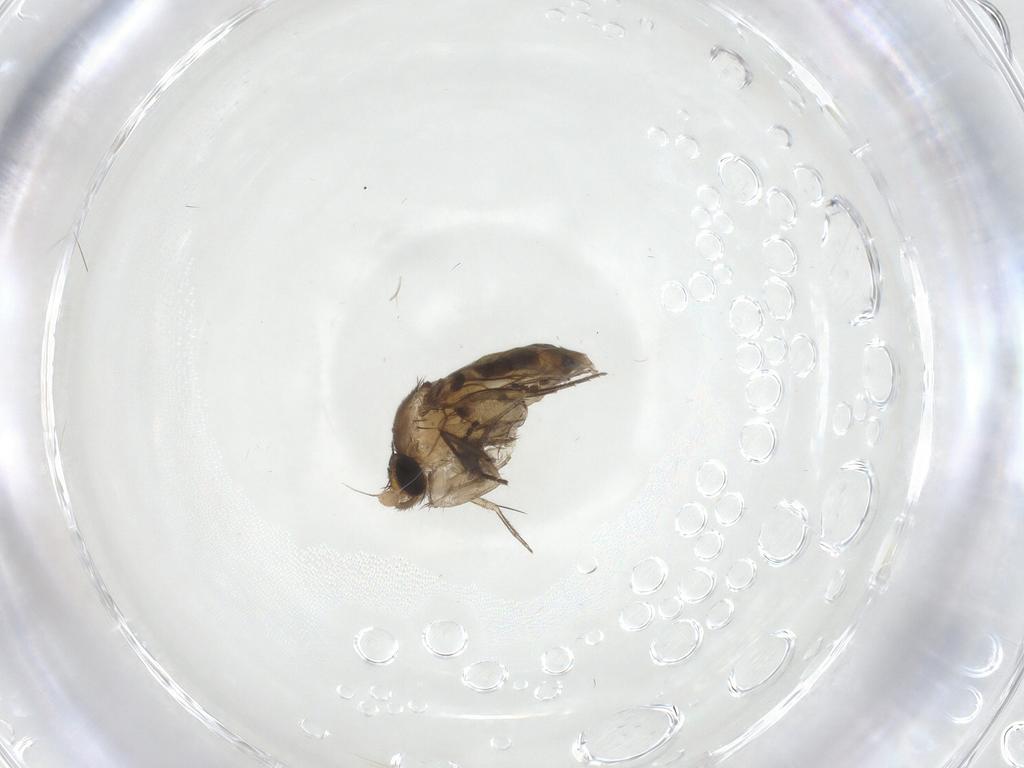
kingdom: Animalia
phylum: Arthropoda
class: Insecta
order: Diptera
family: Phoridae
